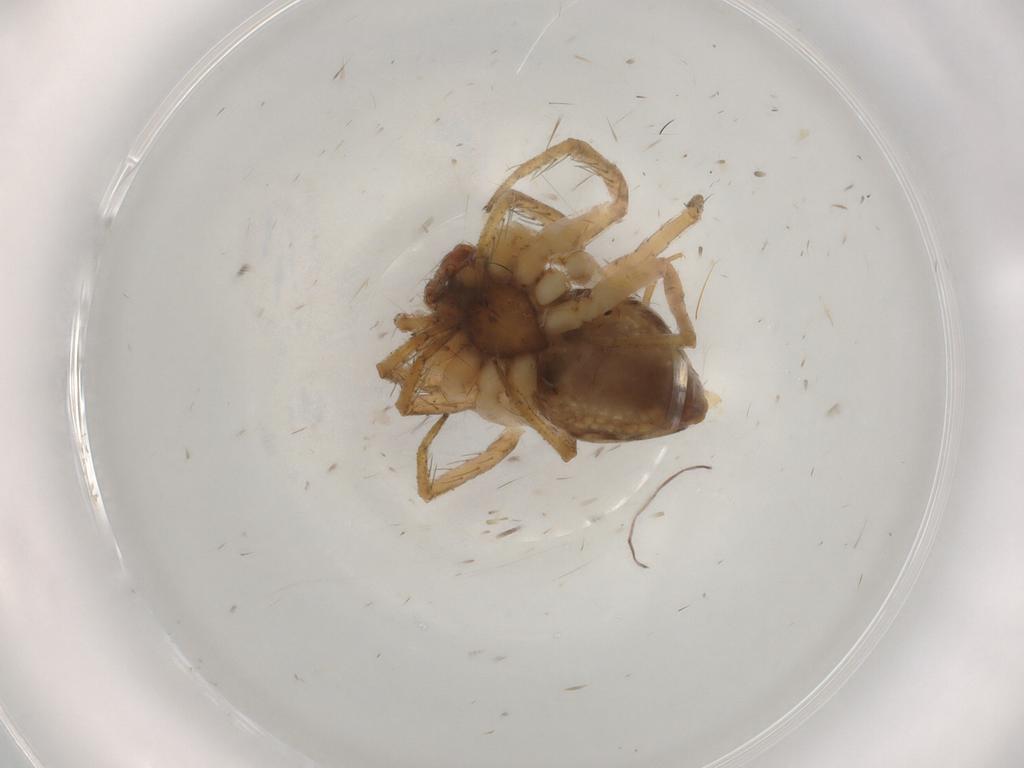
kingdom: Animalia
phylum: Arthropoda
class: Arachnida
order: Araneae
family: Pisauridae
